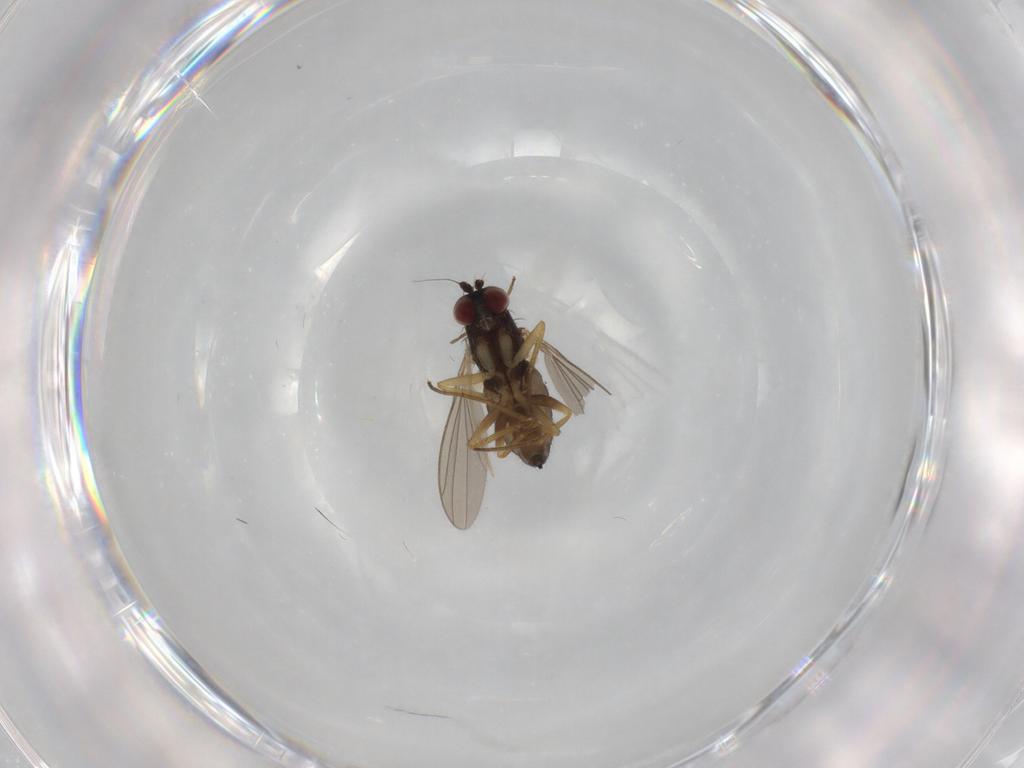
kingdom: Animalia
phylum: Arthropoda
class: Insecta
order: Diptera
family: Dolichopodidae
